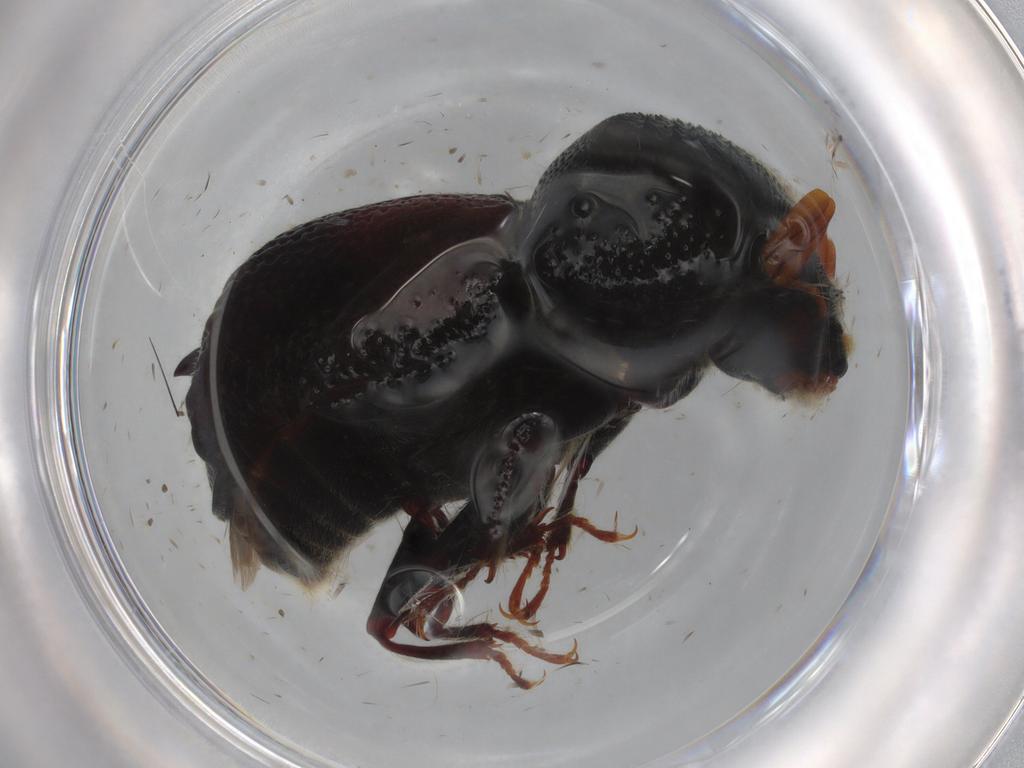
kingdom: Animalia
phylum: Arthropoda
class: Insecta
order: Coleoptera
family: Bostrichidae
